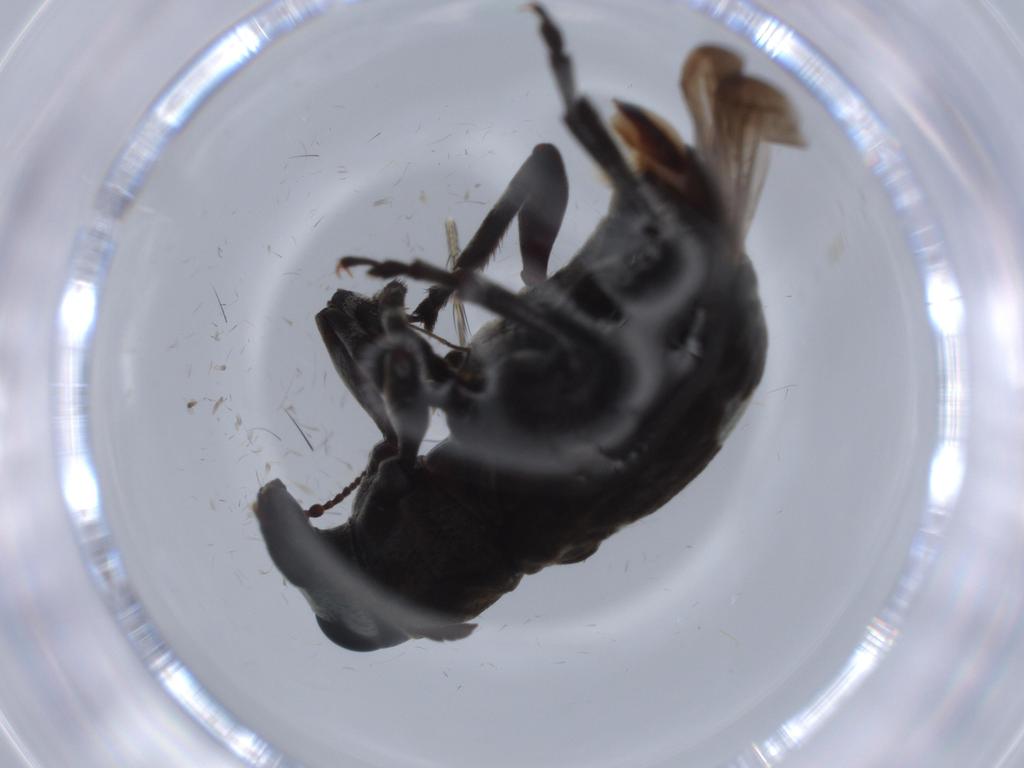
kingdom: Animalia
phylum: Arthropoda
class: Insecta
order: Coleoptera
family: Anthribidae
